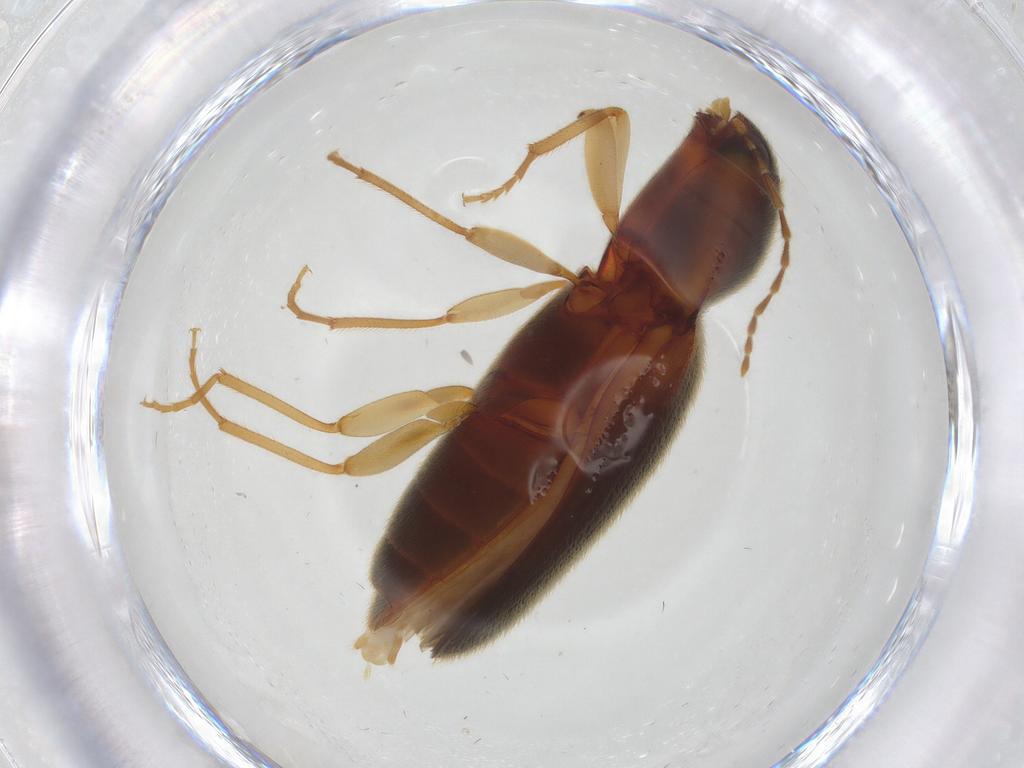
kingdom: Animalia
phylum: Arthropoda
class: Insecta
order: Coleoptera
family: Elateridae
